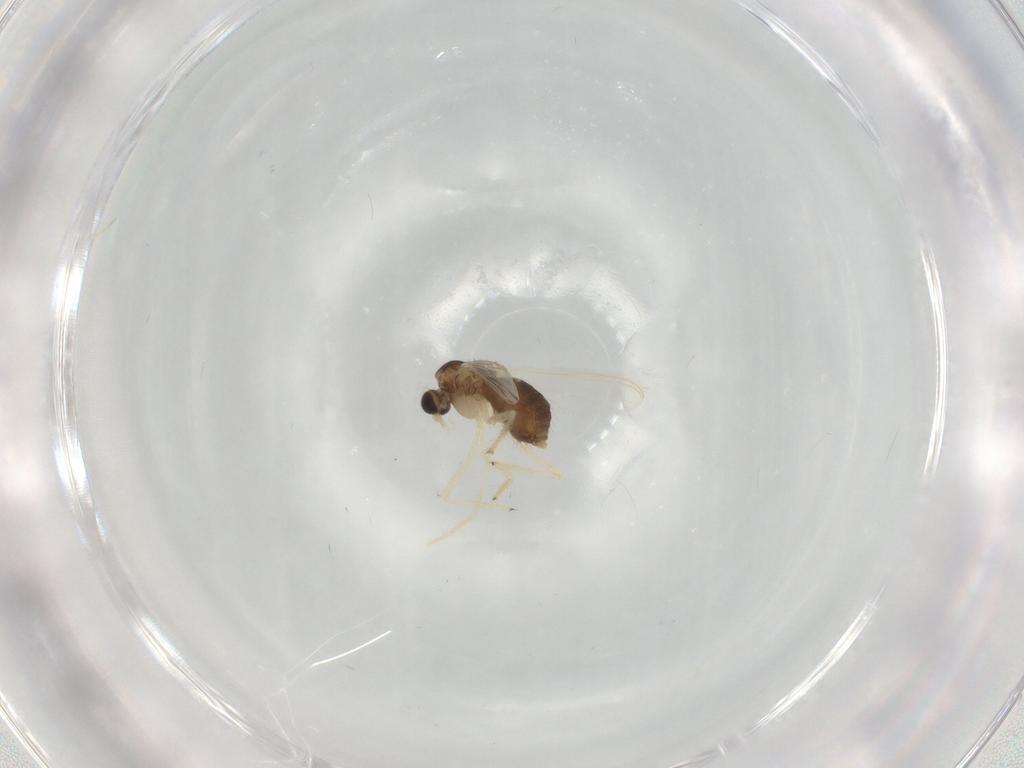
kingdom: Animalia
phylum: Arthropoda
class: Insecta
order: Diptera
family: Chironomidae
